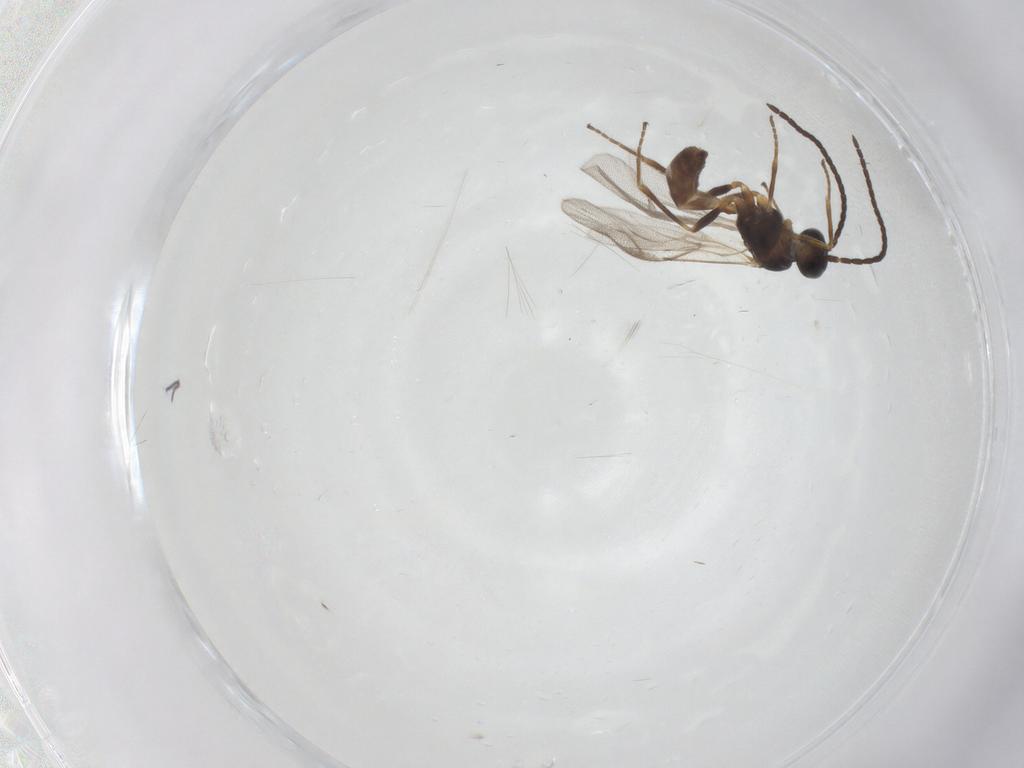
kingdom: Animalia
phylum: Arthropoda
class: Insecta
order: Hymenoptera
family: Braconidae
